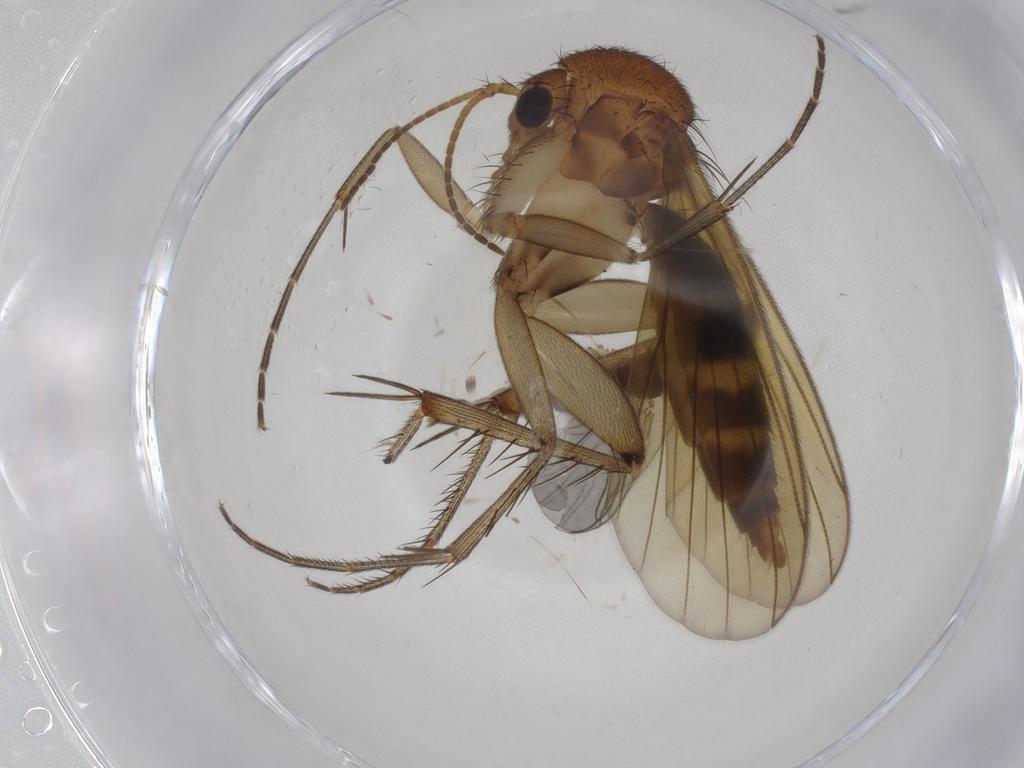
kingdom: Animalia
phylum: Arthropoda
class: Insecta
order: Diptera
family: Mycetophilidae
